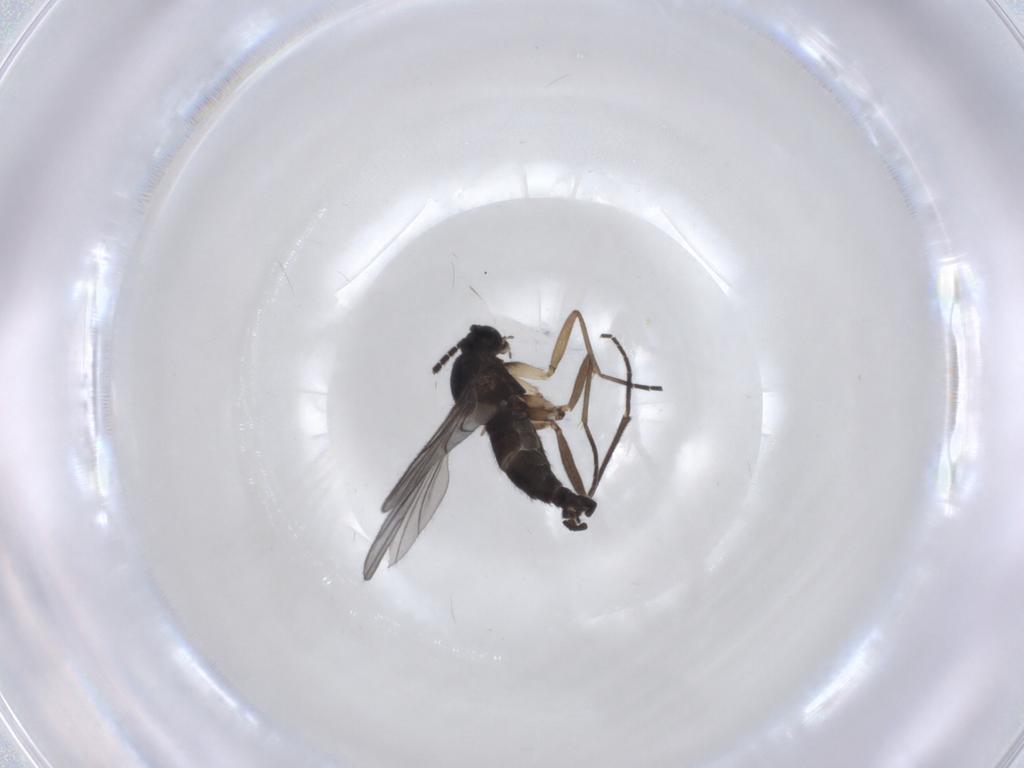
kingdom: Animalia
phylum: Arthropoda
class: Insecta
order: Diptera
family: Sciaridae
